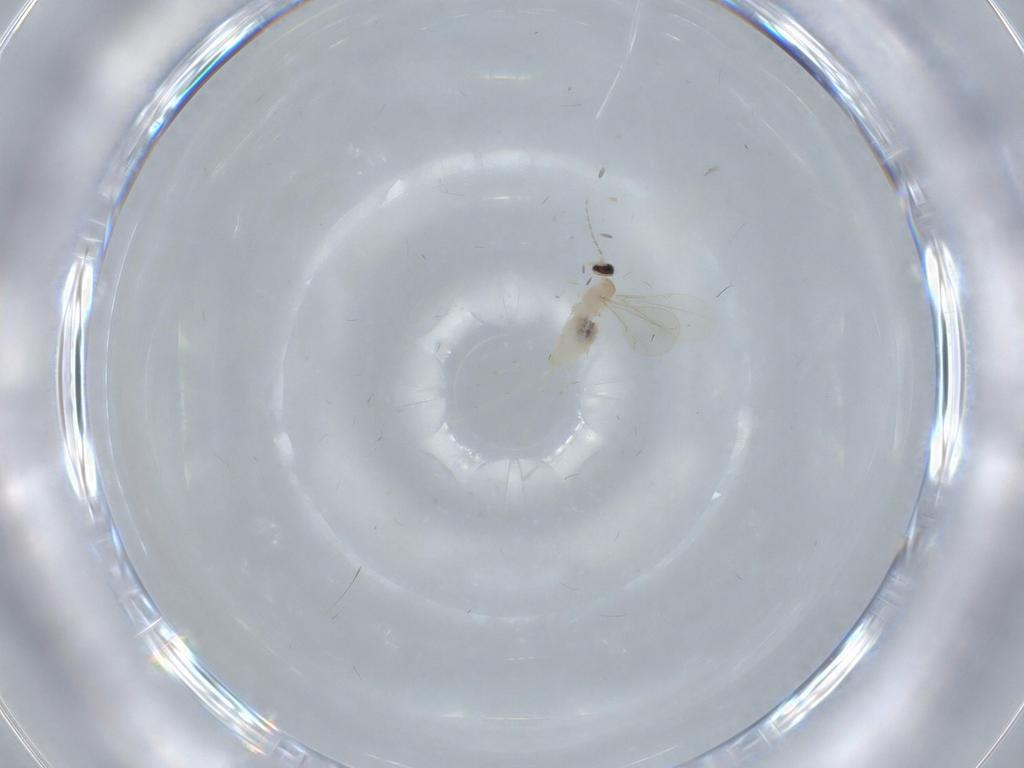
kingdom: Animalia
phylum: Arthropoda
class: Insecta
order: Diptera
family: Cecidomyiidae
